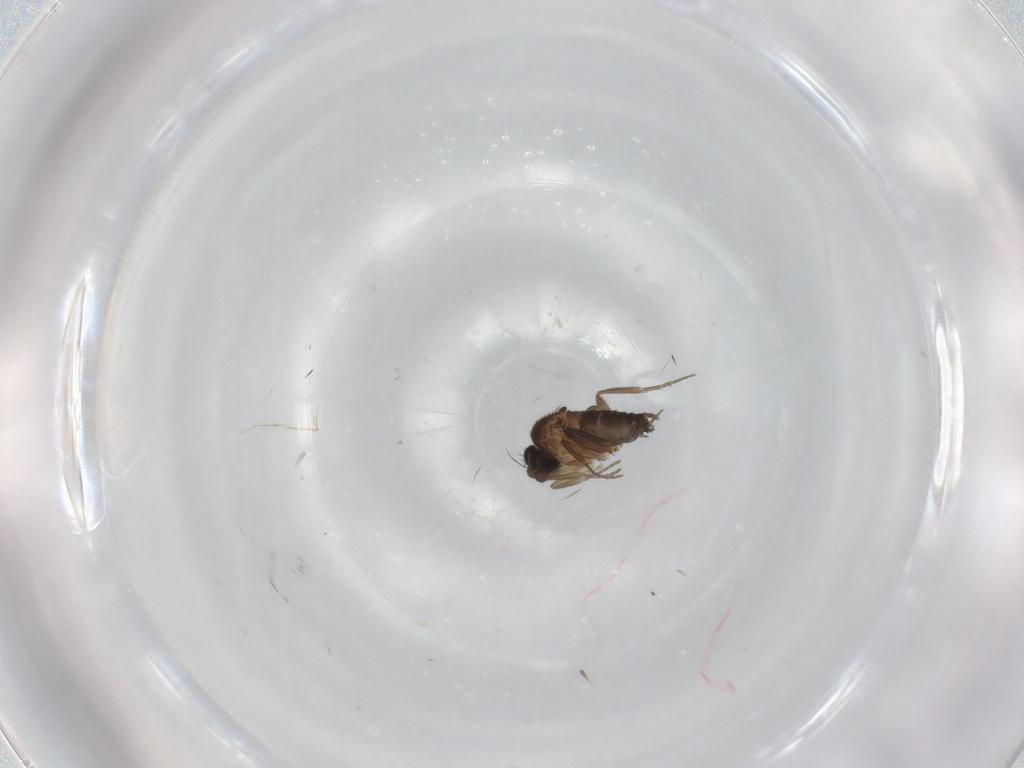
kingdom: Animalia
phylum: Arthropoda
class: Insecta
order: Diptera
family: Phoridae
